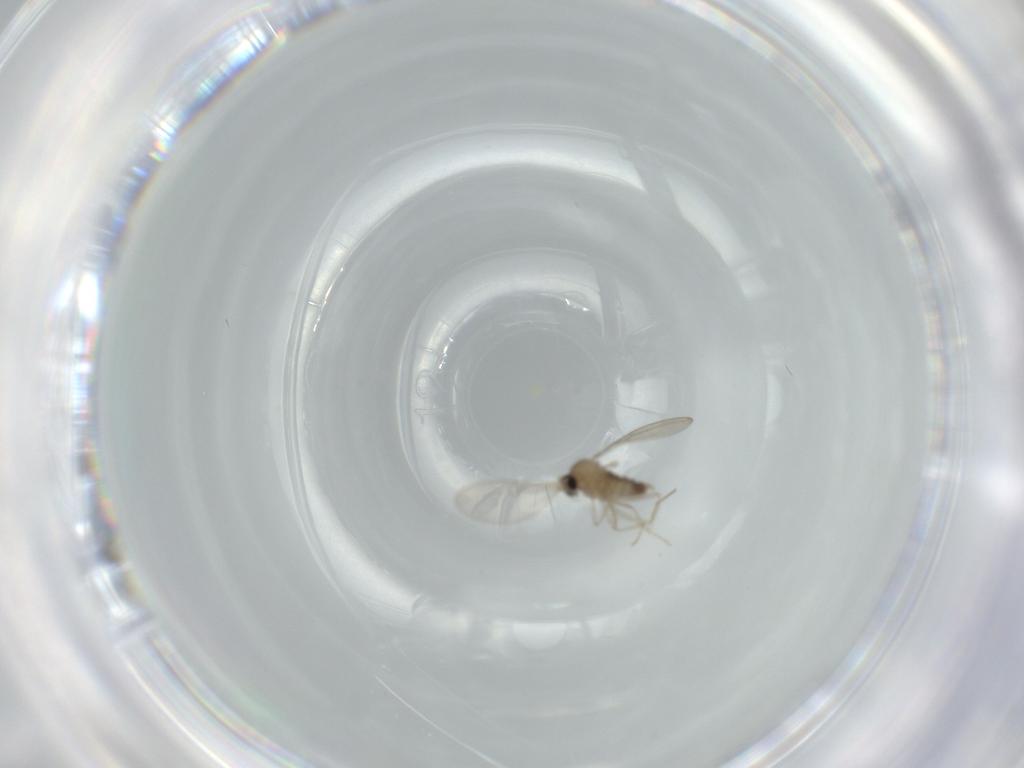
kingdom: Animalia
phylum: Arthropoda
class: Insecta
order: Diptera
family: Cecidomyiidae
